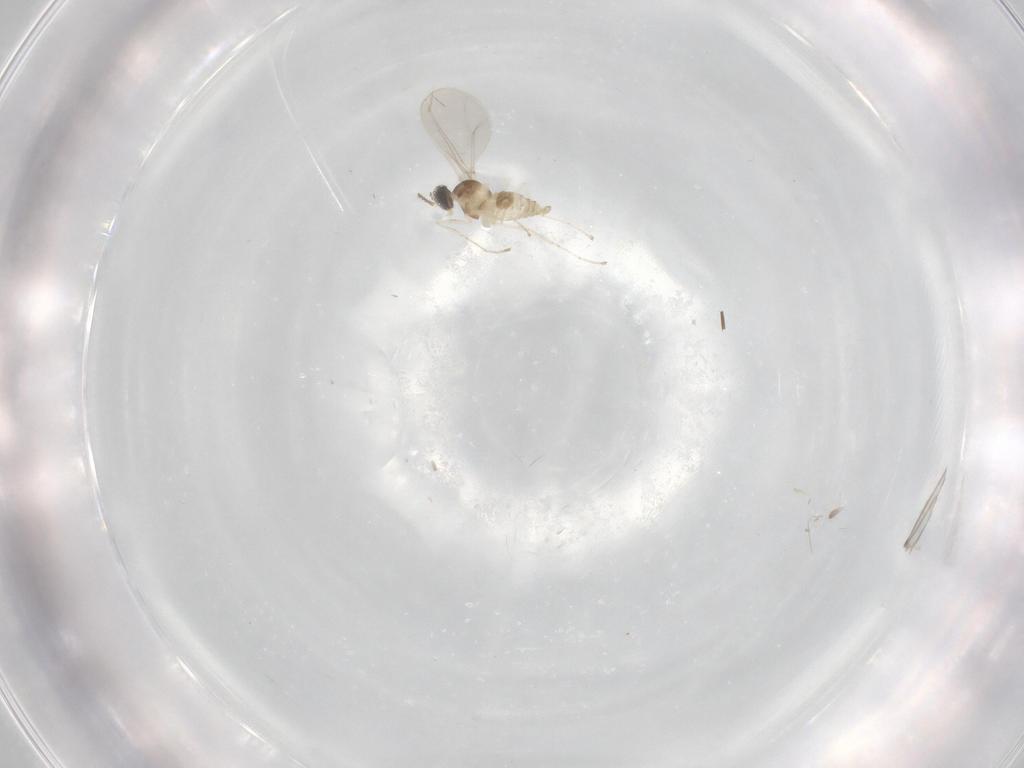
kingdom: Animalia
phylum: Arthropoda
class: Insecta
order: Diptera
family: Cecidomyiidae
